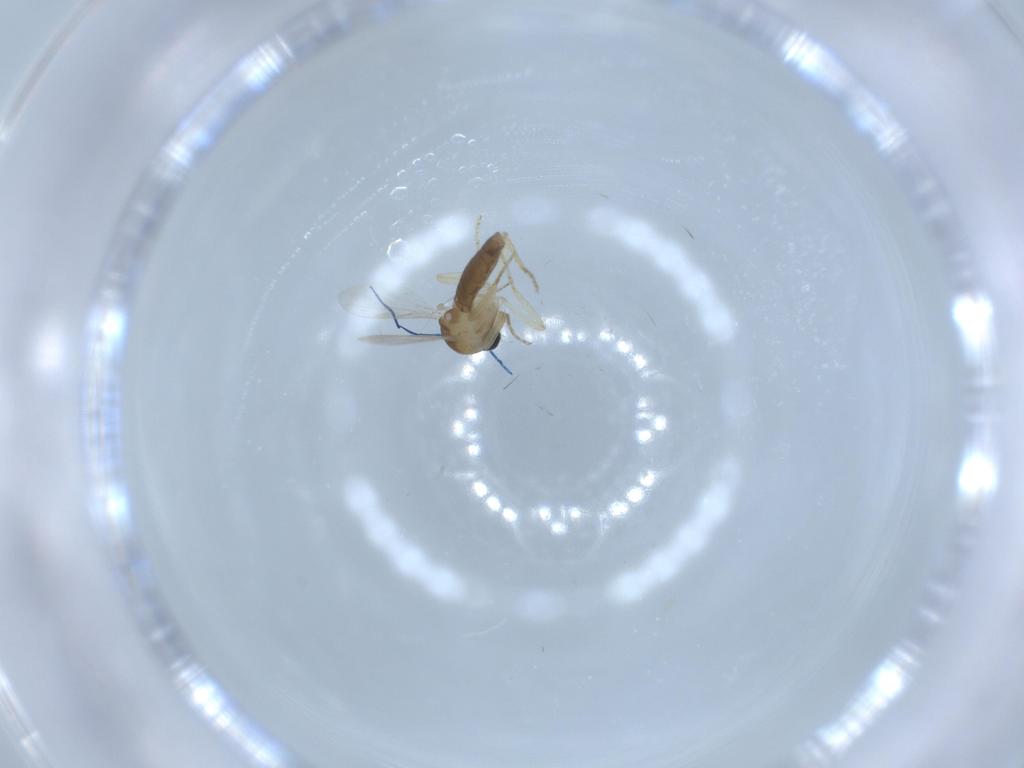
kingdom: Animalia
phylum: Arthropoda
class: Insecta
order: Diptera
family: Ceratopogonidae
